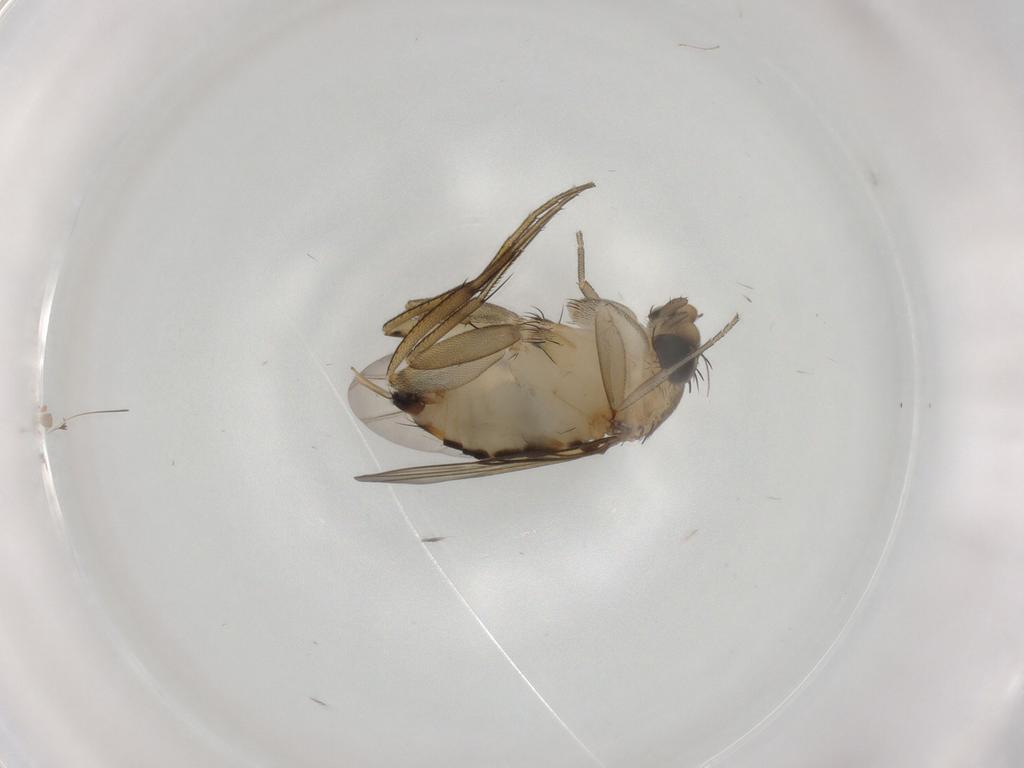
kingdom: Animalia
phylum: Arthropoda
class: Insecta
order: Diptera
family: Phoridae
